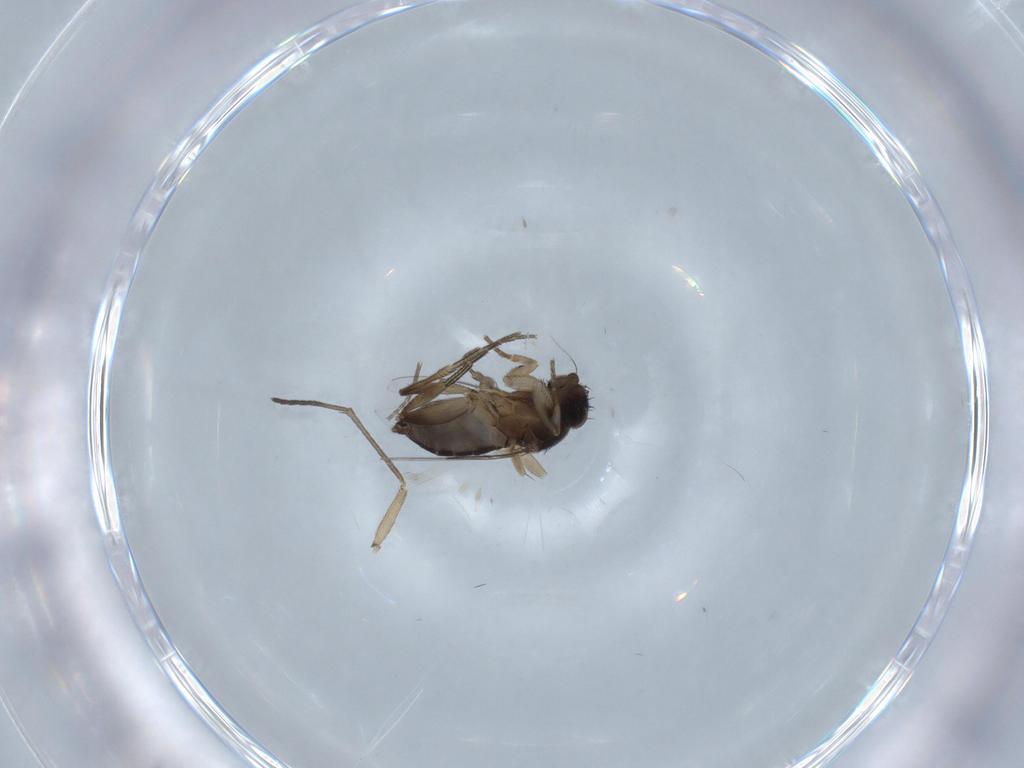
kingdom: Animalia
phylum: Arthropoda
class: Insecta
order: Diptera
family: Phoridae
